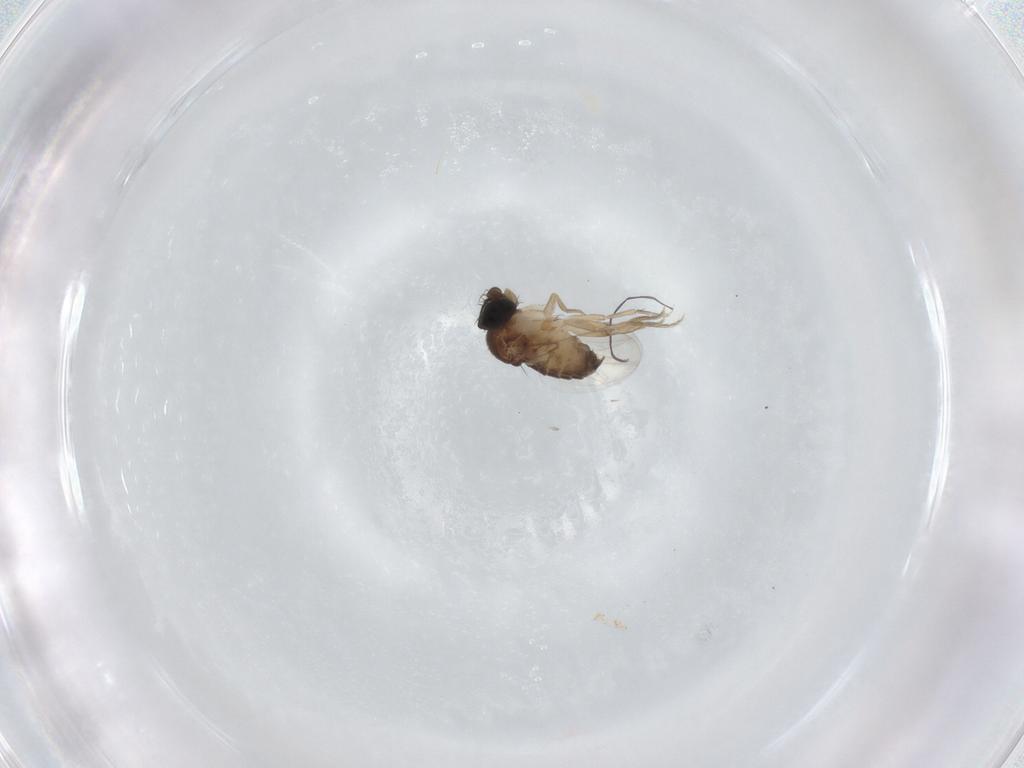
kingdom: Animalia
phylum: Arthropoda
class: Insecta
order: Diptera
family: Phoridae
